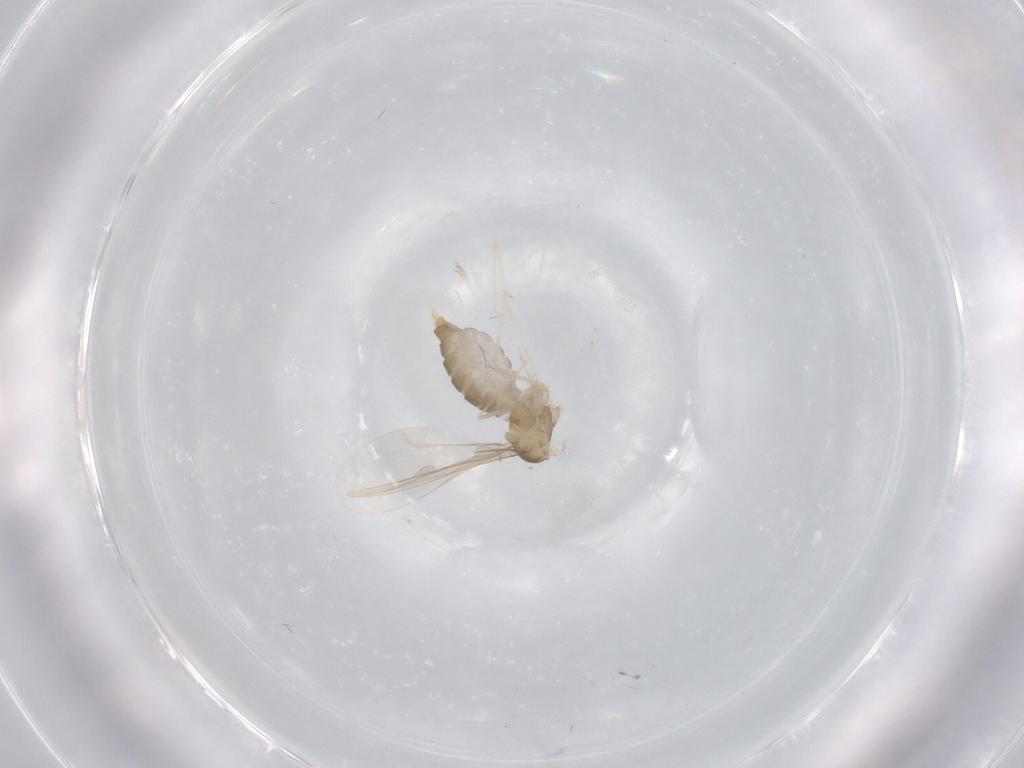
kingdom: Animalia
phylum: Arthropoda
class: Insecta
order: Diptera
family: Cecidomyiidae
